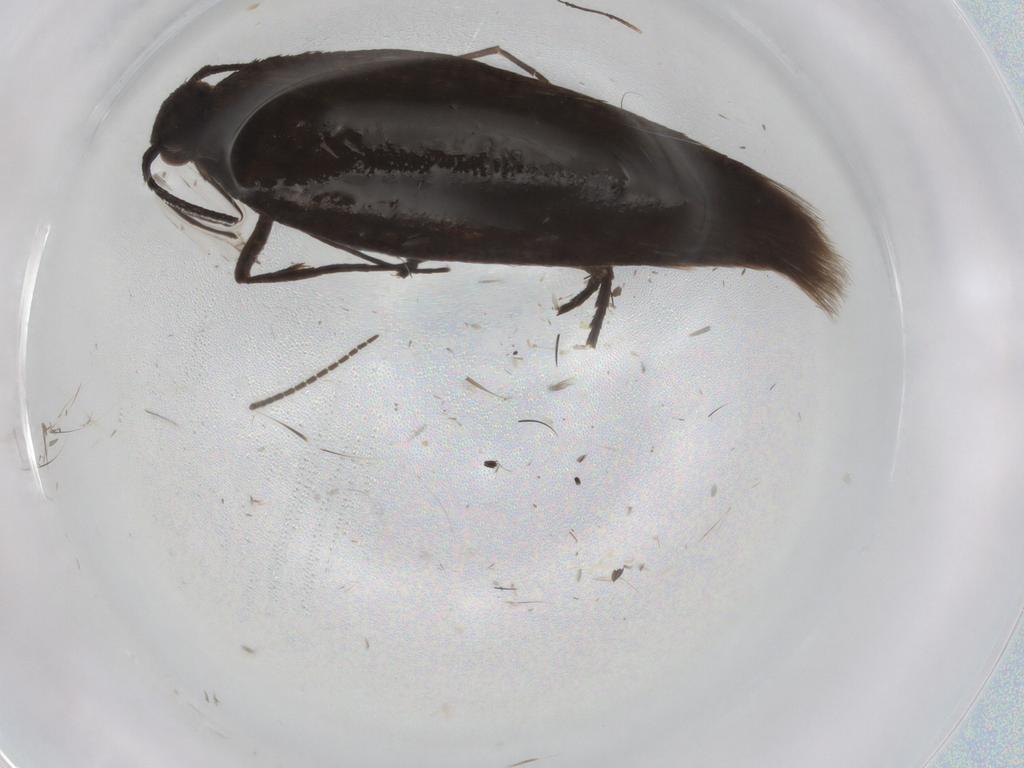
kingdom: Animalia
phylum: Arthropoda
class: Insecta
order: Lepidoptera
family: Scythrididae
